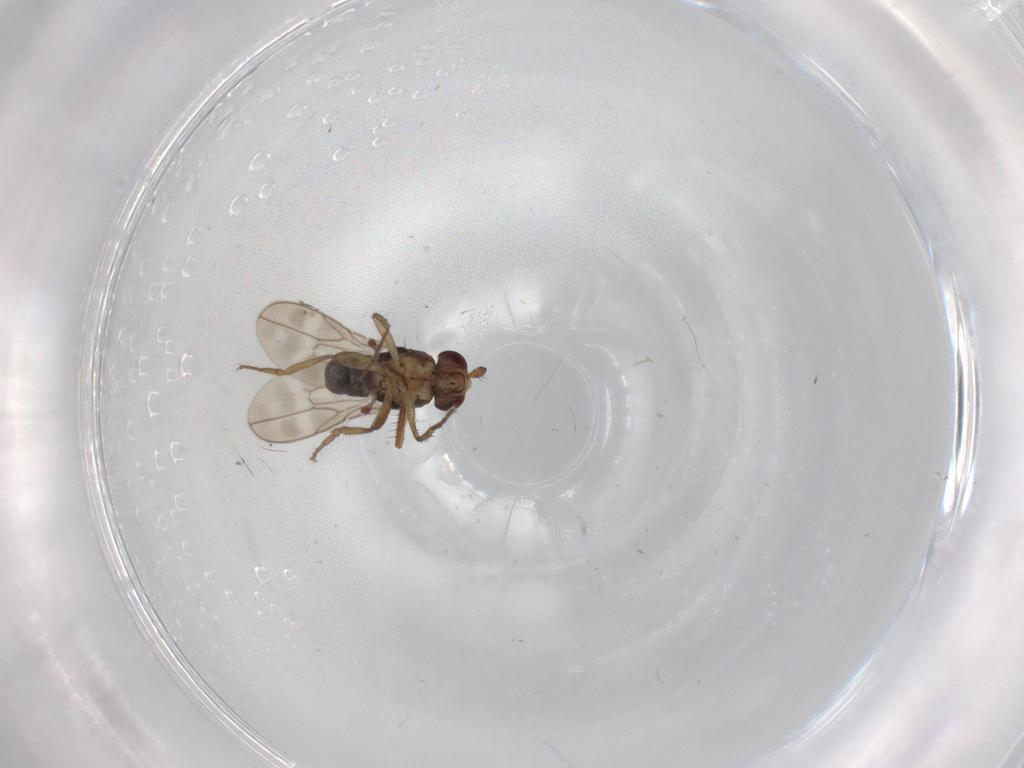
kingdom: Animalia
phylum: Arthropoda
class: Insecta
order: Diptera
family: Sphaeroceridae
